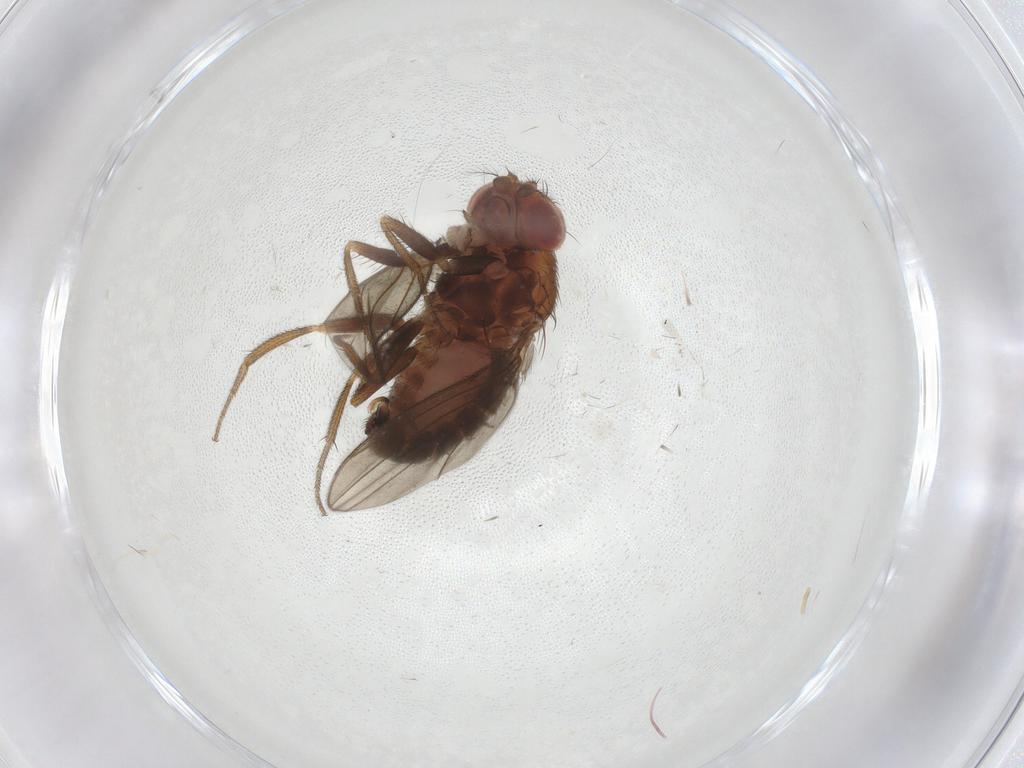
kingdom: Animalia
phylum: Arthropoda
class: Insecta
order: Diptera
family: Drosophilidae
